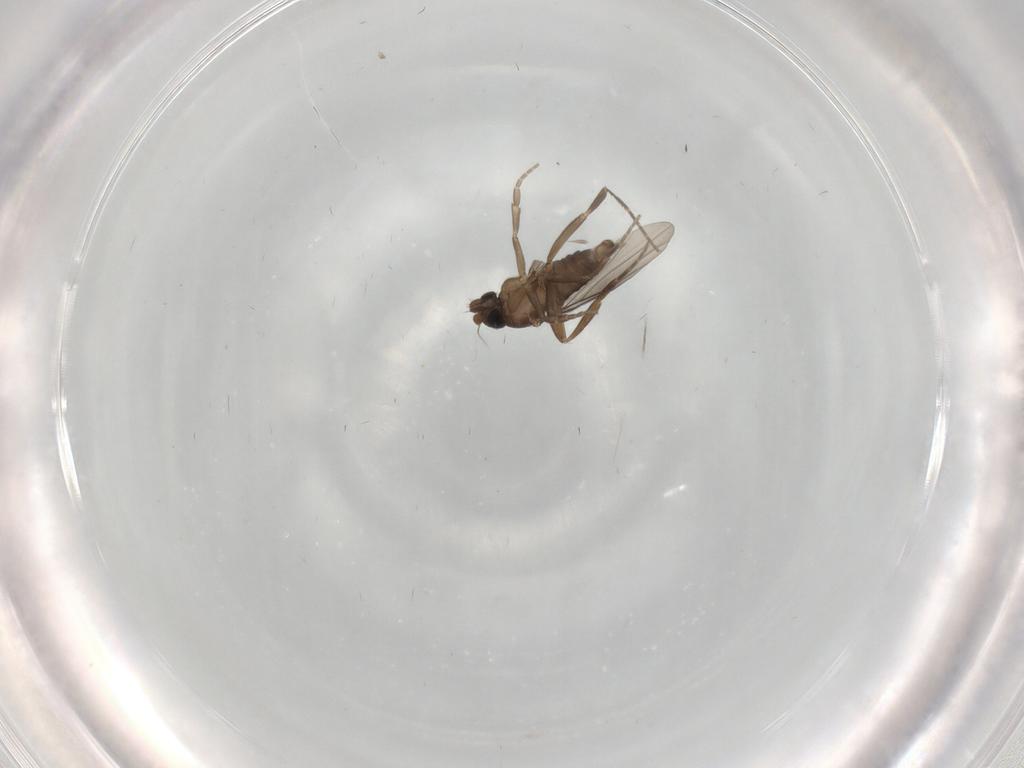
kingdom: Animalia
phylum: Arthropoda
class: Insecta
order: Diptera
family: Phoridae
